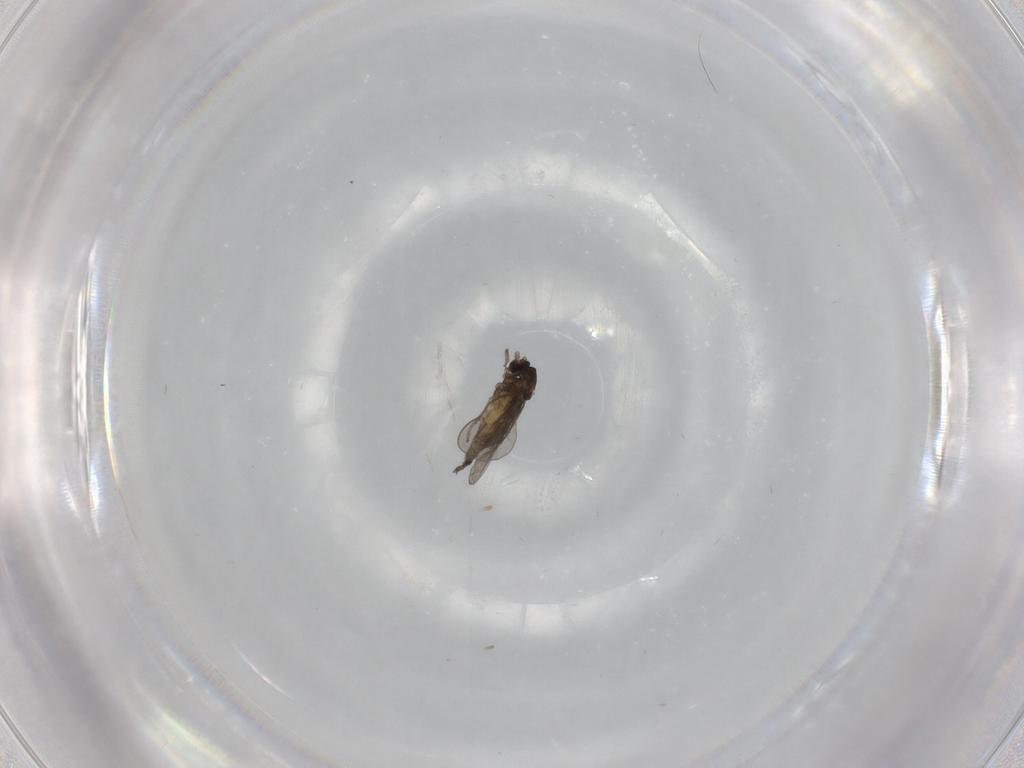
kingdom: Animalia
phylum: Arthropoda
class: Insecta
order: Diptera
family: Cecidomyiidae
